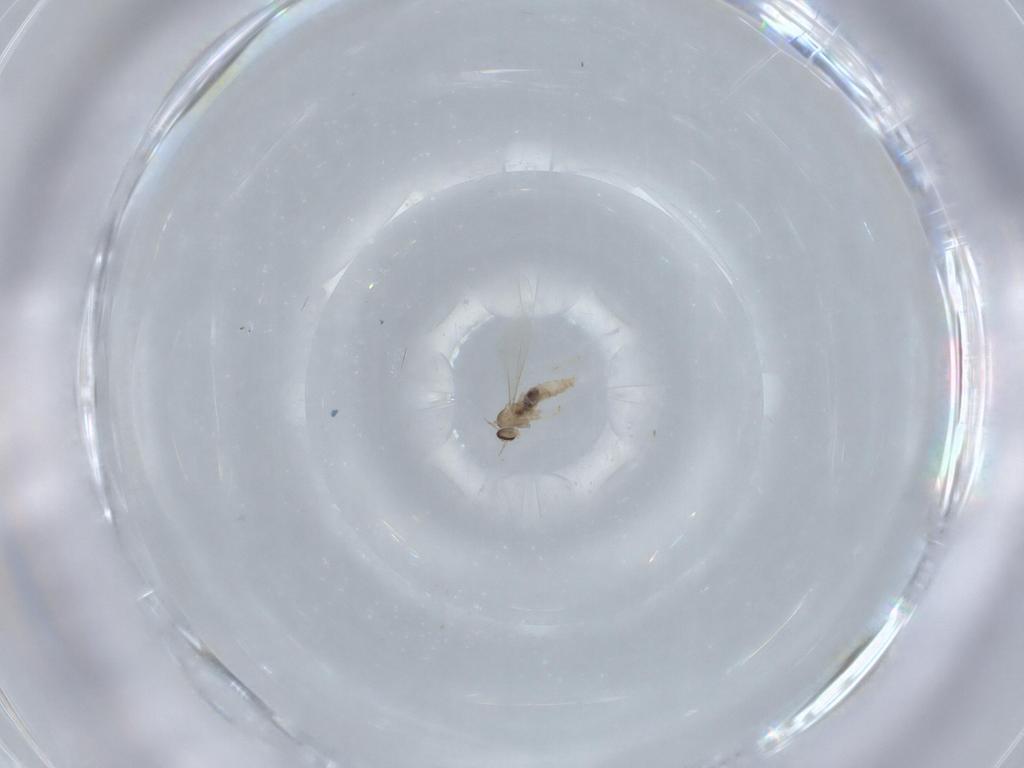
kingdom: Animalia
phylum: Arthropoda
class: Insecta
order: Diptera
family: Cecidomyiidae
